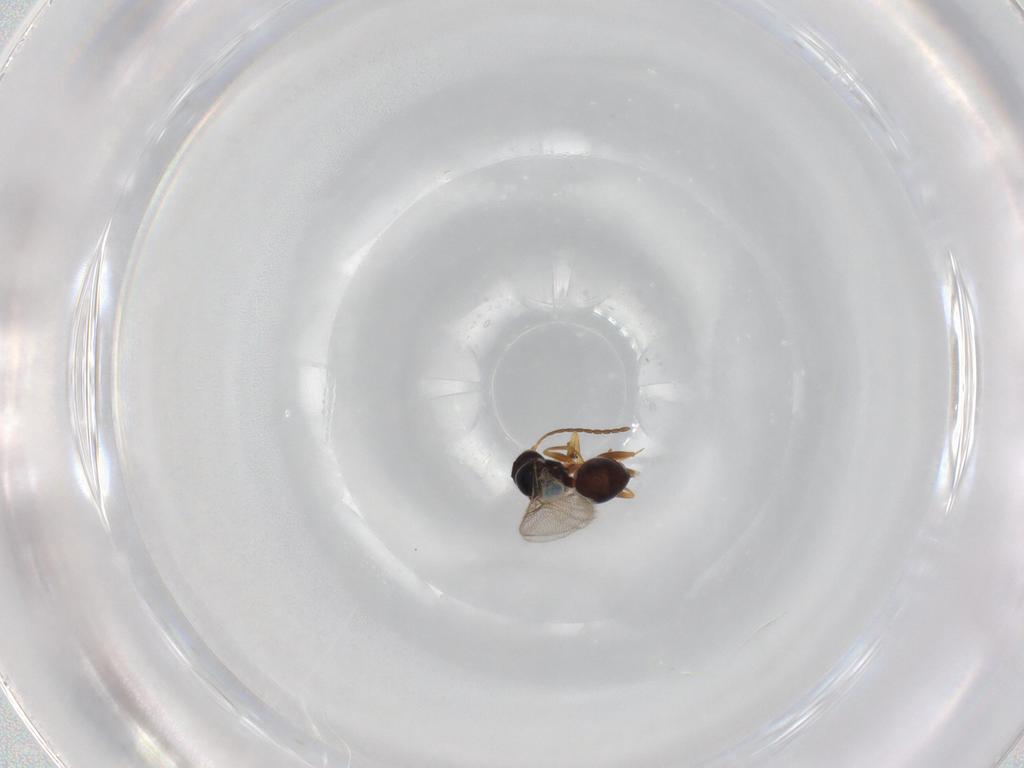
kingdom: Animalia
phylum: Arthropoda
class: Insecta
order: Hymenoptera
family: Figitidae
